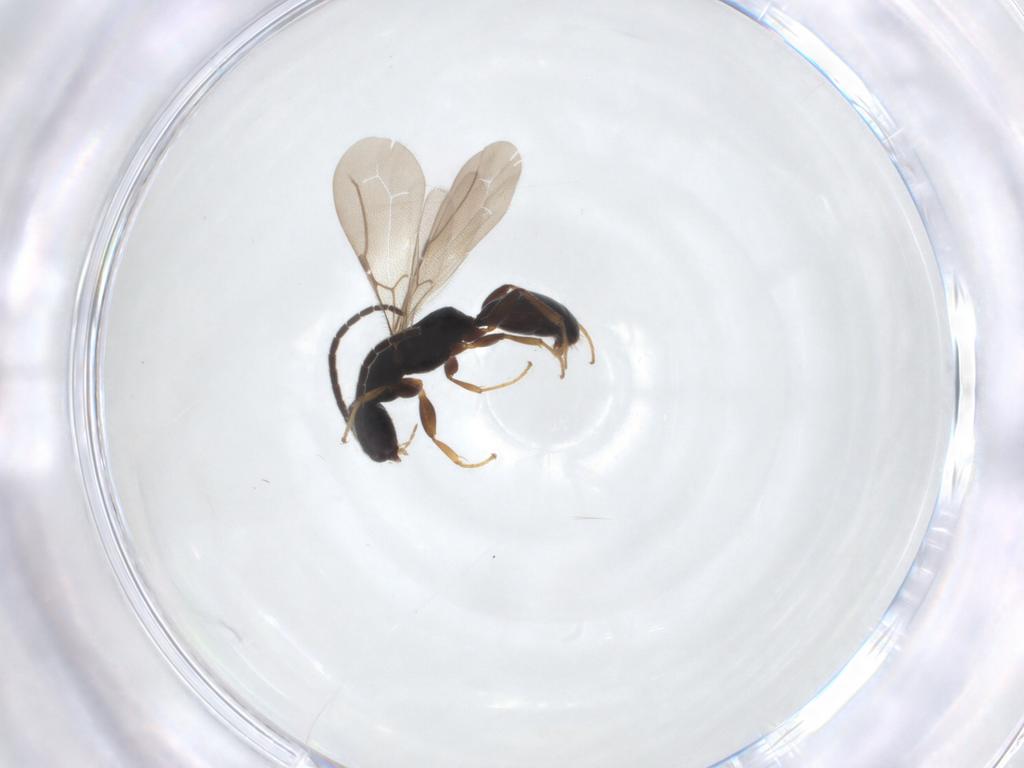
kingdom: Animalia
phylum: Arthropoda
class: Insecta
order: Hymenoptera
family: Bethylidae
